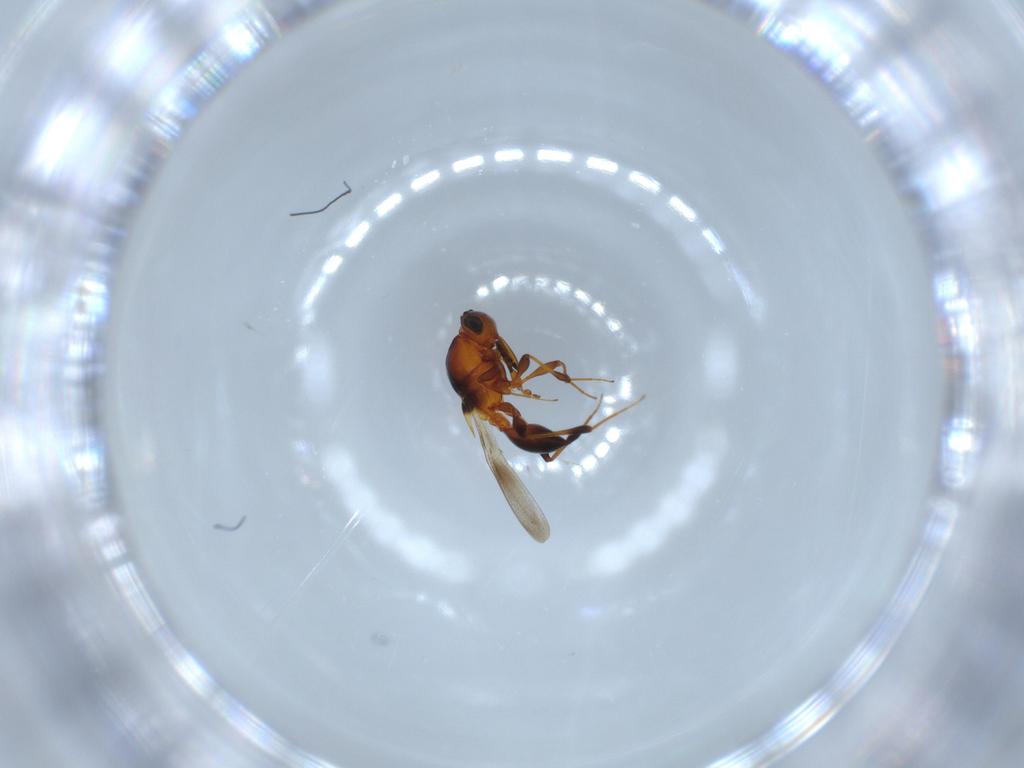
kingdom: Animalia
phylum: Arthropoda
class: Insecta
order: Hymenoptera
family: Platygastridae
